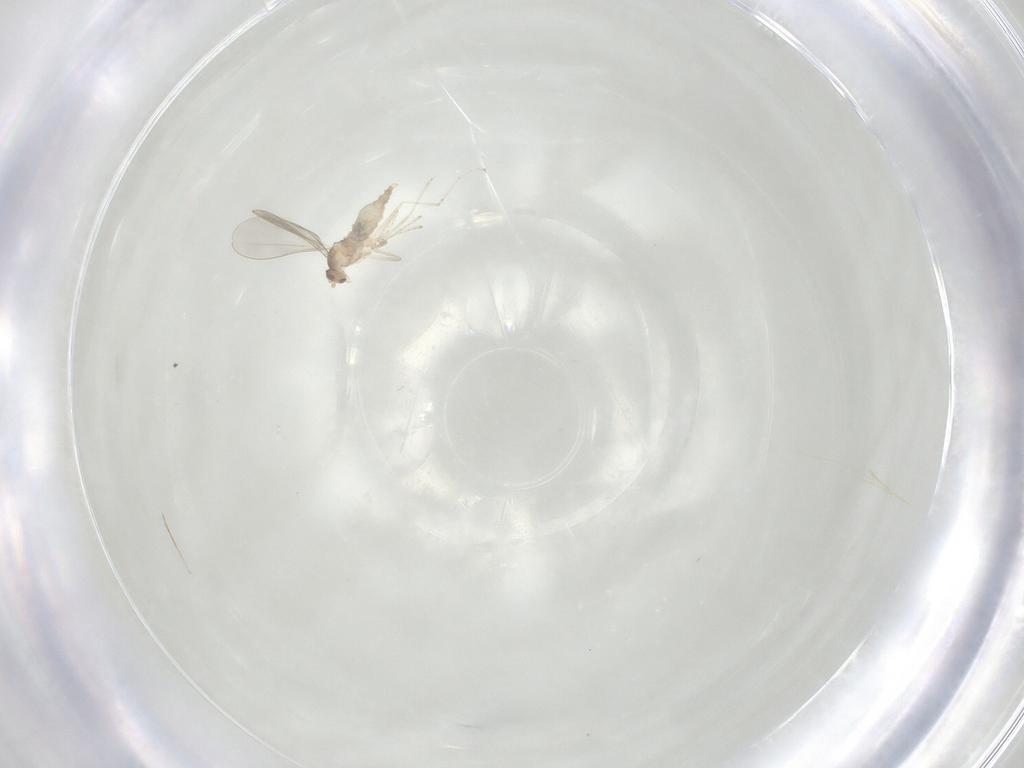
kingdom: Animalia
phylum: Arthropoda
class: Insecta
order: Diptera
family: Cecidomyiidae
